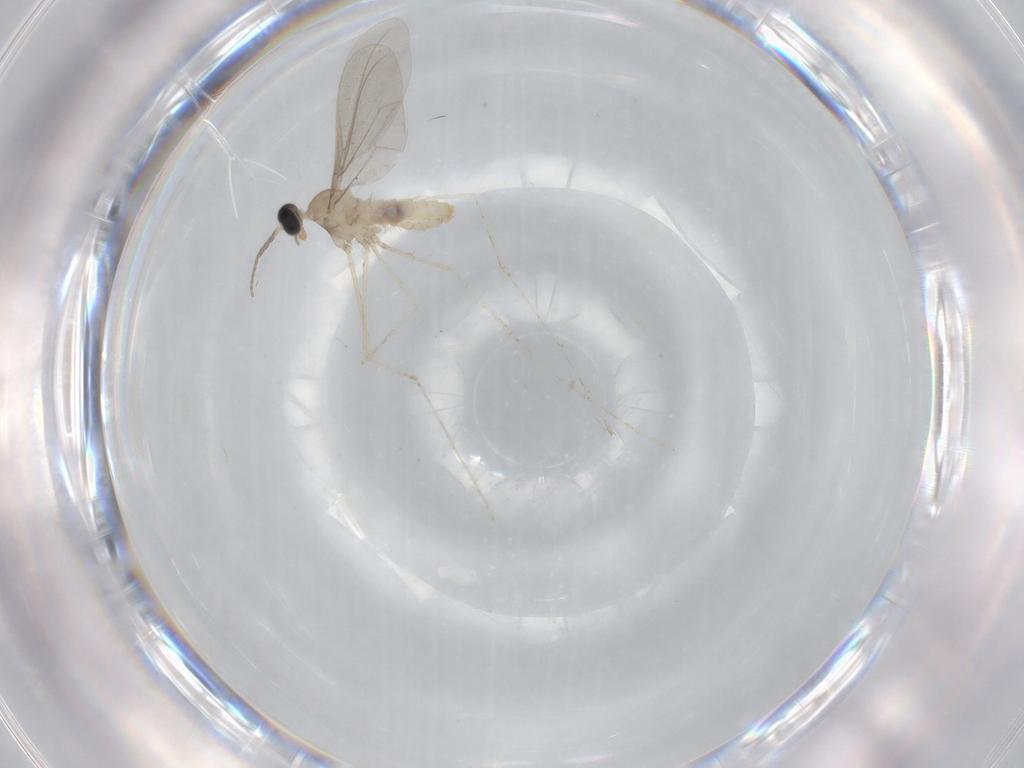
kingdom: Animalia
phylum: Arthropoda
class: Insecta
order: Diptera
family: Cecidomyiidae
